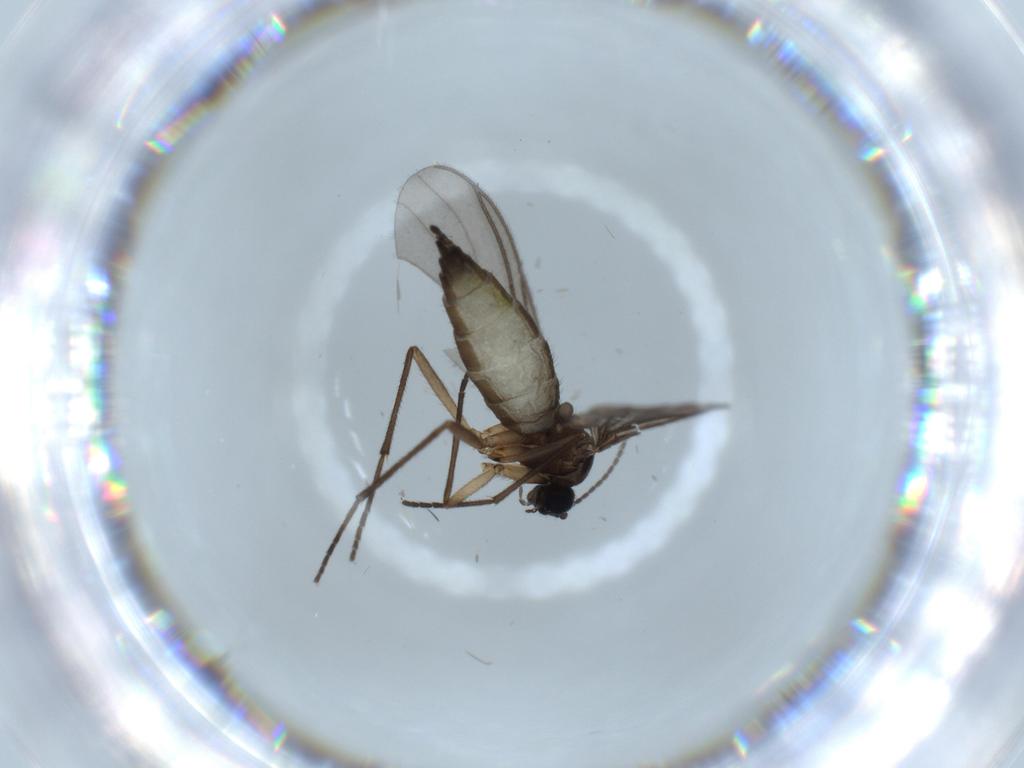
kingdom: Animalia
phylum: Arthropoda
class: Insecta
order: Diptera
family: Sciaridae
